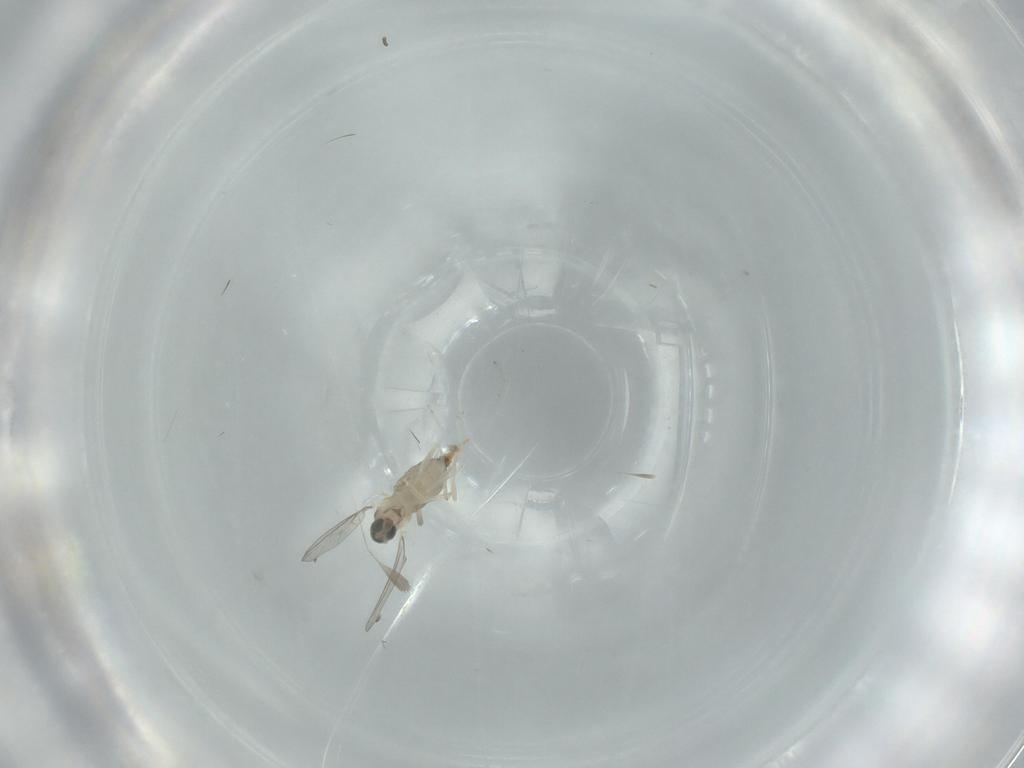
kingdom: Animalia
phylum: Arthropoda
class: Insecta
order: Diptera
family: Cecidomyiidae
